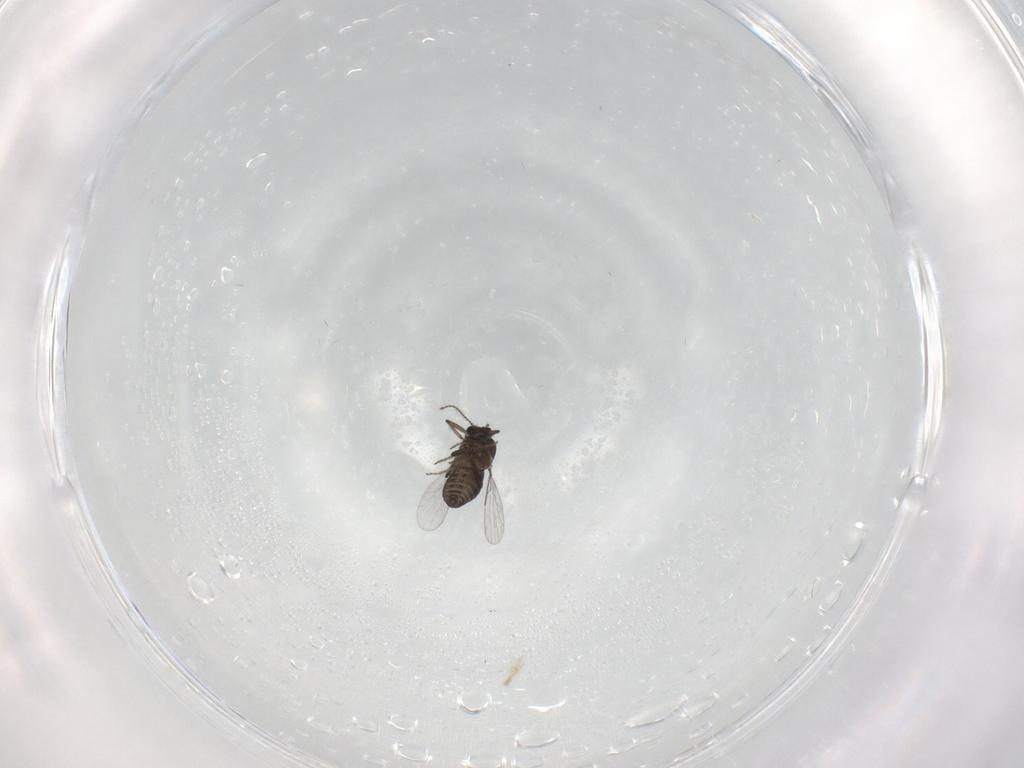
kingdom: Animalia
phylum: Arthropoda
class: Insecta
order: Diptera
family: Ceratopogonidae
